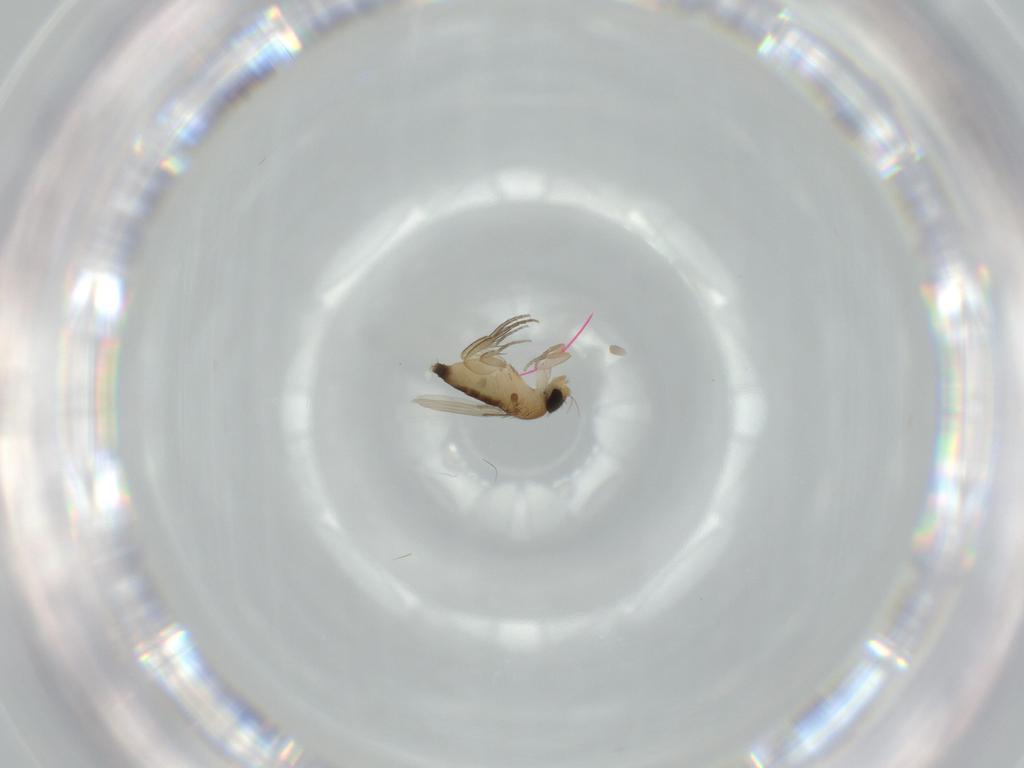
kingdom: Animalia
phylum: Arthropoda
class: Insecta
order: Diptera
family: Phoridae
